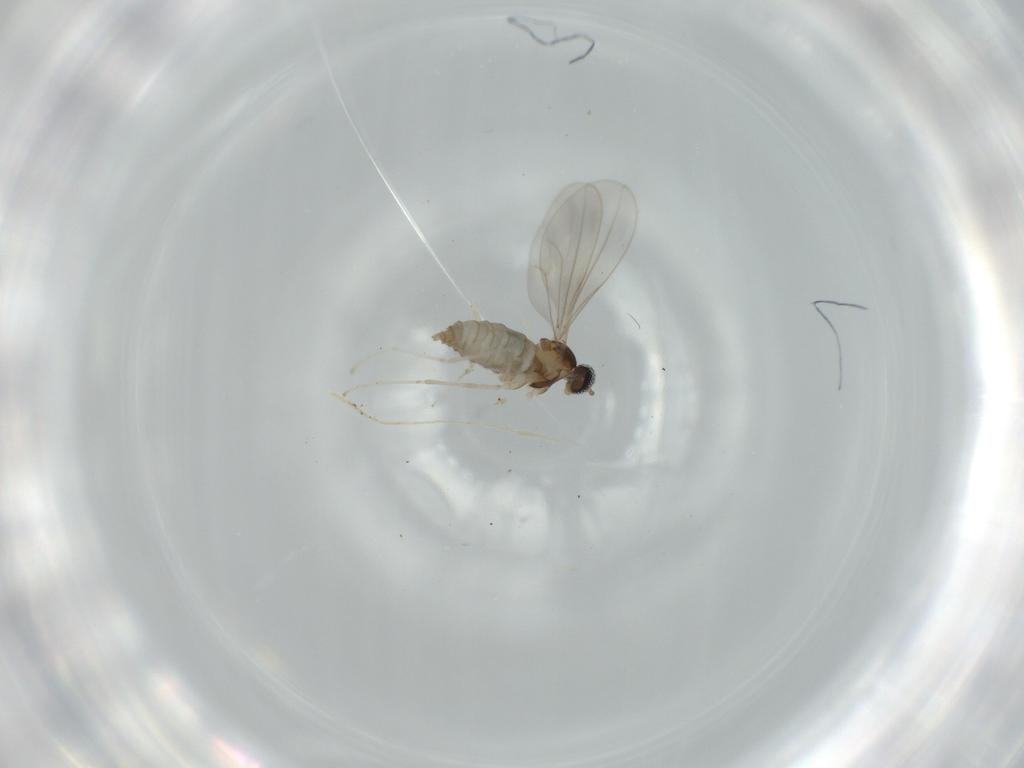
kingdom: Animalia
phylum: Arthropoda
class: Insecta
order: Diptera
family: Cecidomyiidae
